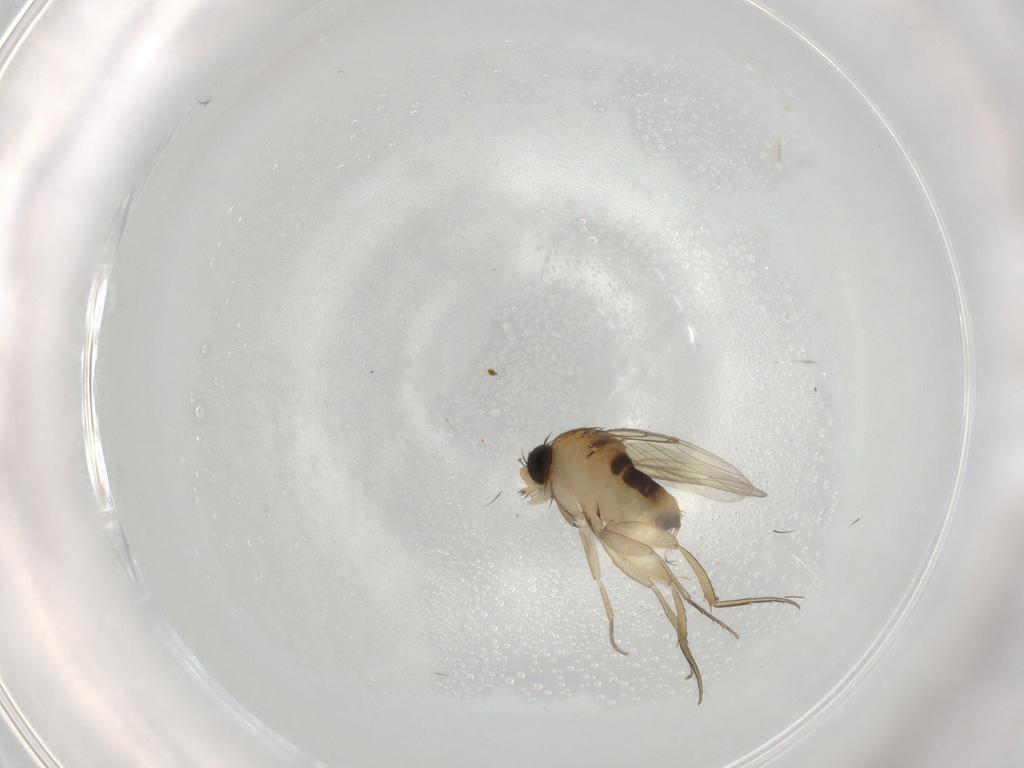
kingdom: Animalia
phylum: Arthropoda
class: Insecta
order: Diptera
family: Phoridae
